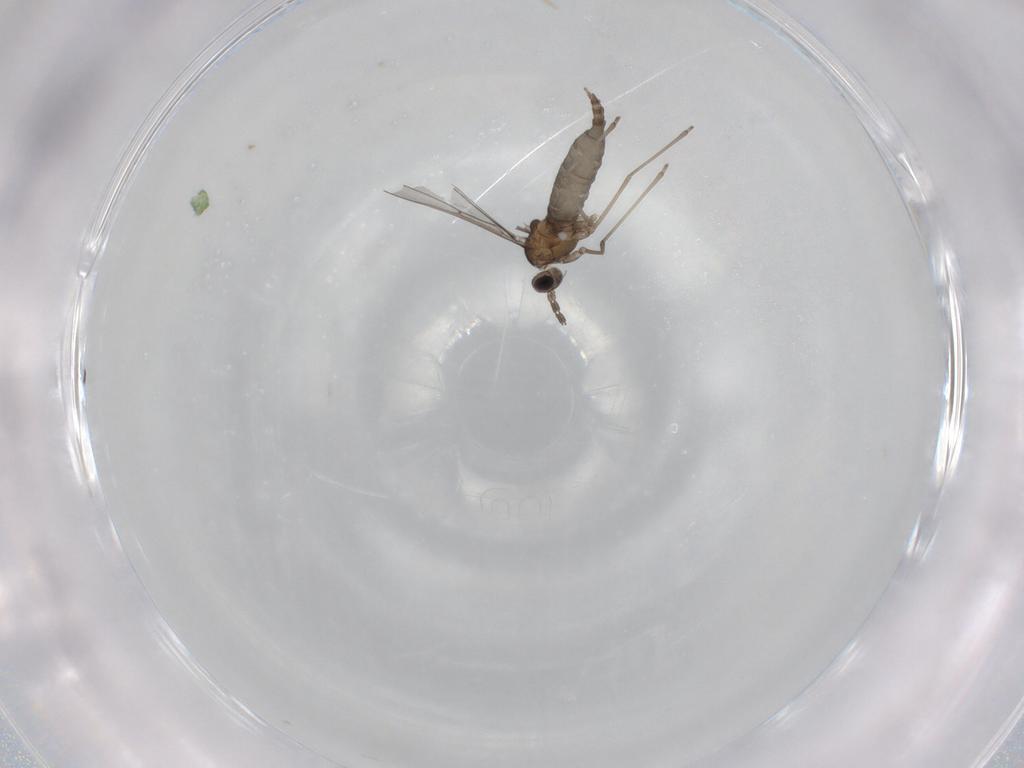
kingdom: Animalia
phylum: Arthropoda
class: Insecta
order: Diptera
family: Cecidomyiidae
